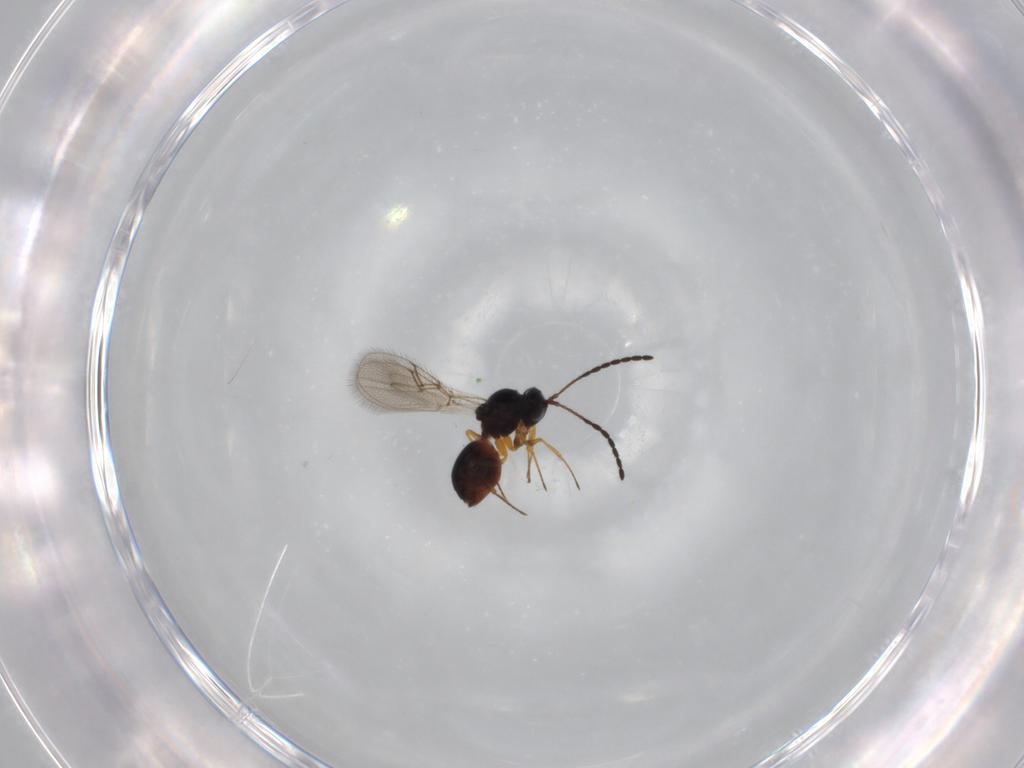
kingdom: Animalia
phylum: Arthropoda
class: Insecta
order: Hymenoptera
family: Figitidae
